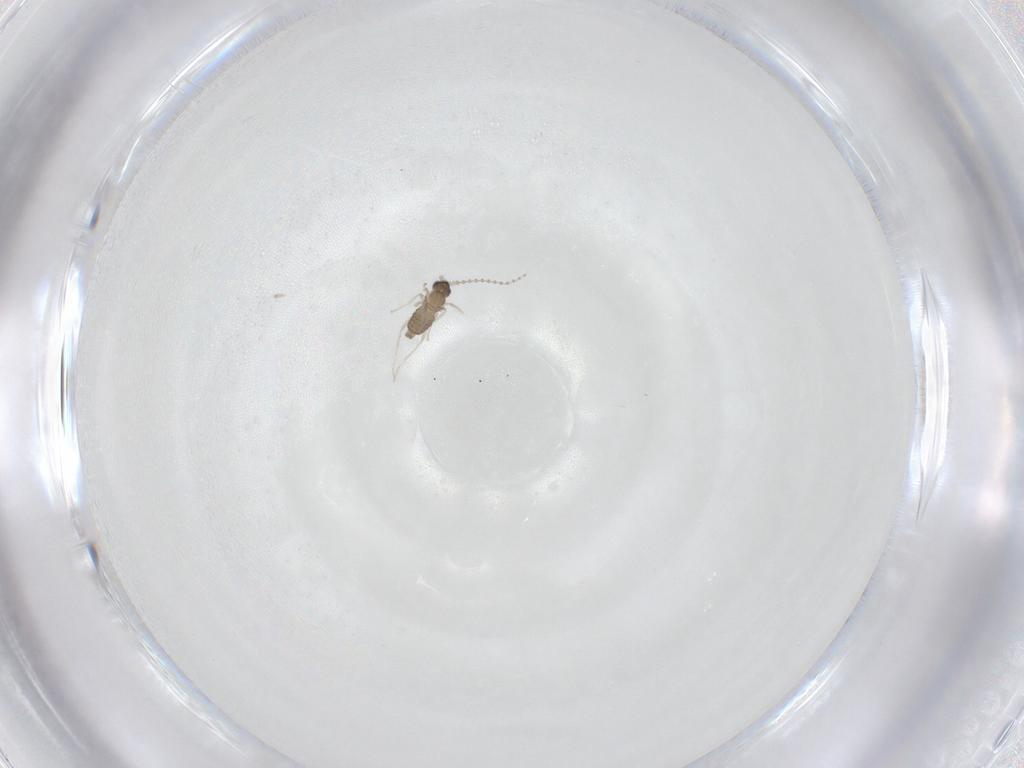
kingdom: Animalia
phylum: Arthropoda
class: Insecta
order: Diptera
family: Cecidomyiidae
